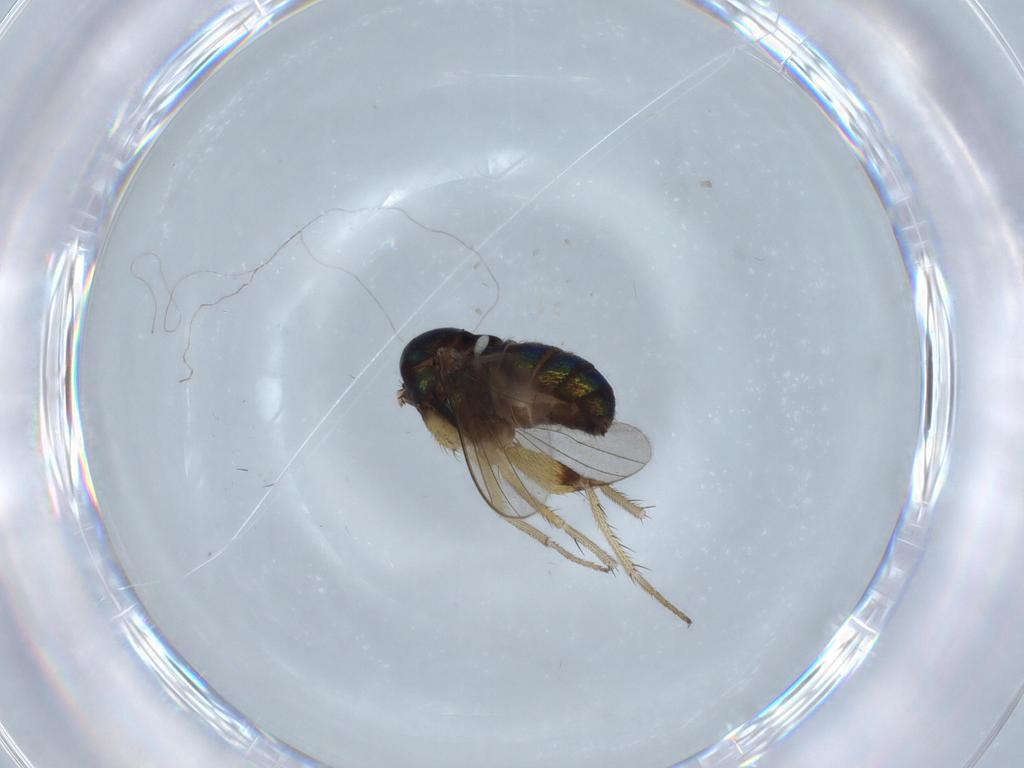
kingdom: Animalia
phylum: Arthropoda
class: Insecta
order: Diptera
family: Dolichopodidae
